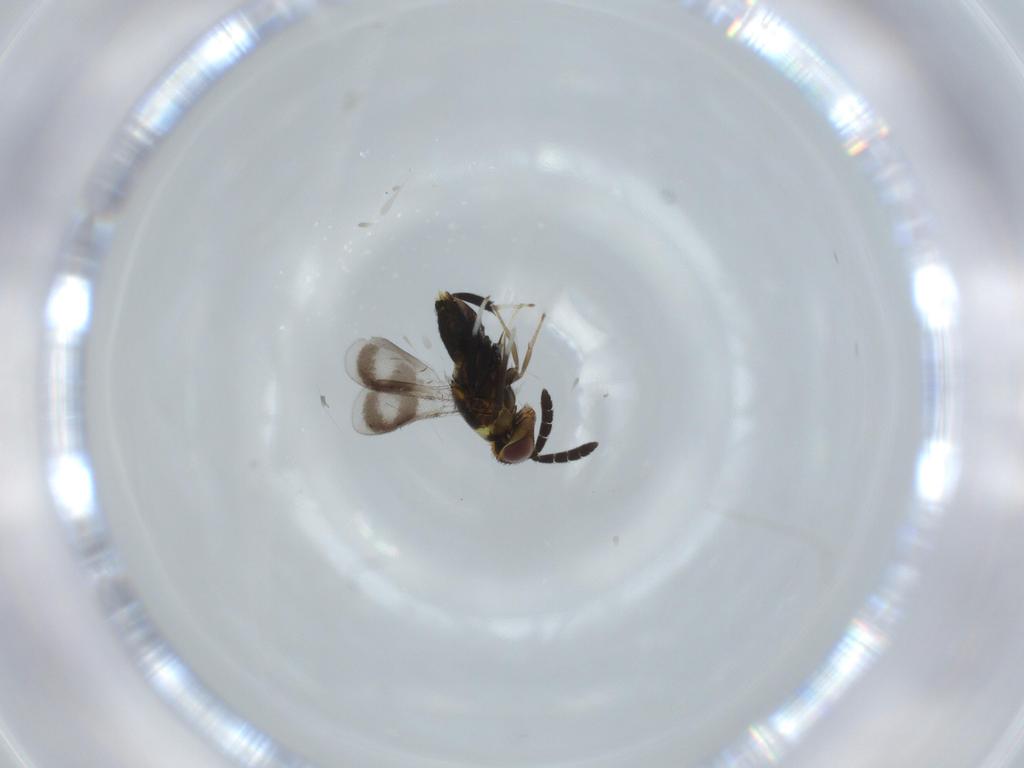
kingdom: Animalia
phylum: Arthropoda
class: Insecta
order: Hymenoptera
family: Aphelinidae
